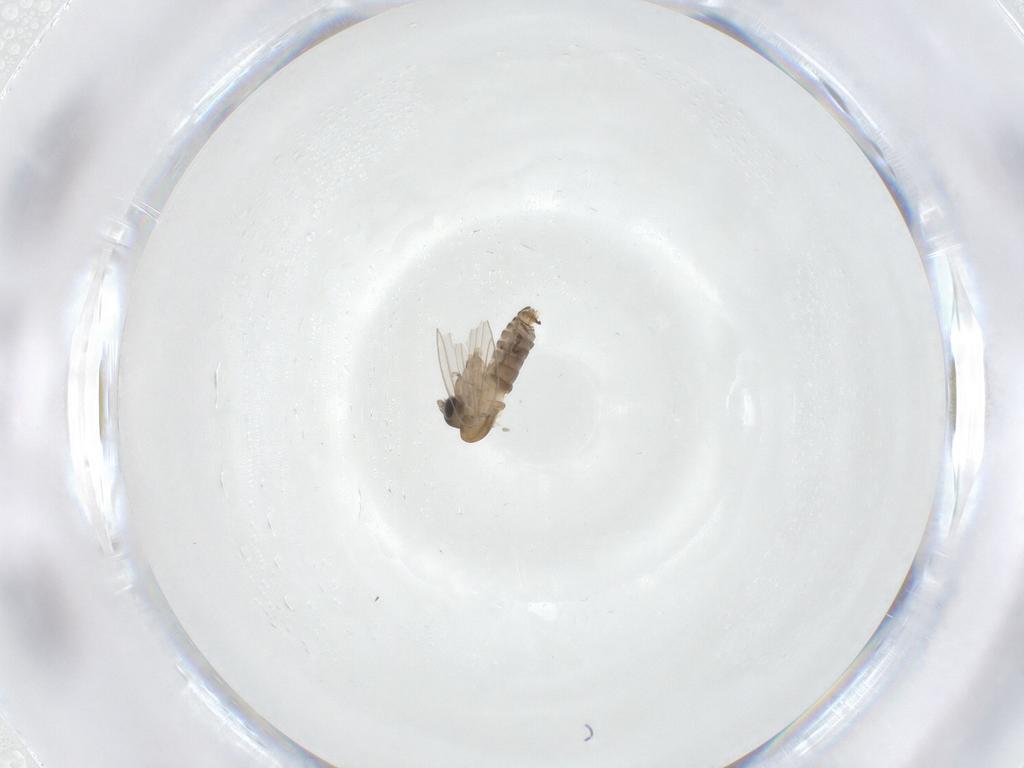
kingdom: Animalia
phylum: Arthropoda
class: Insecta
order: Diptera
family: Psychodidae
